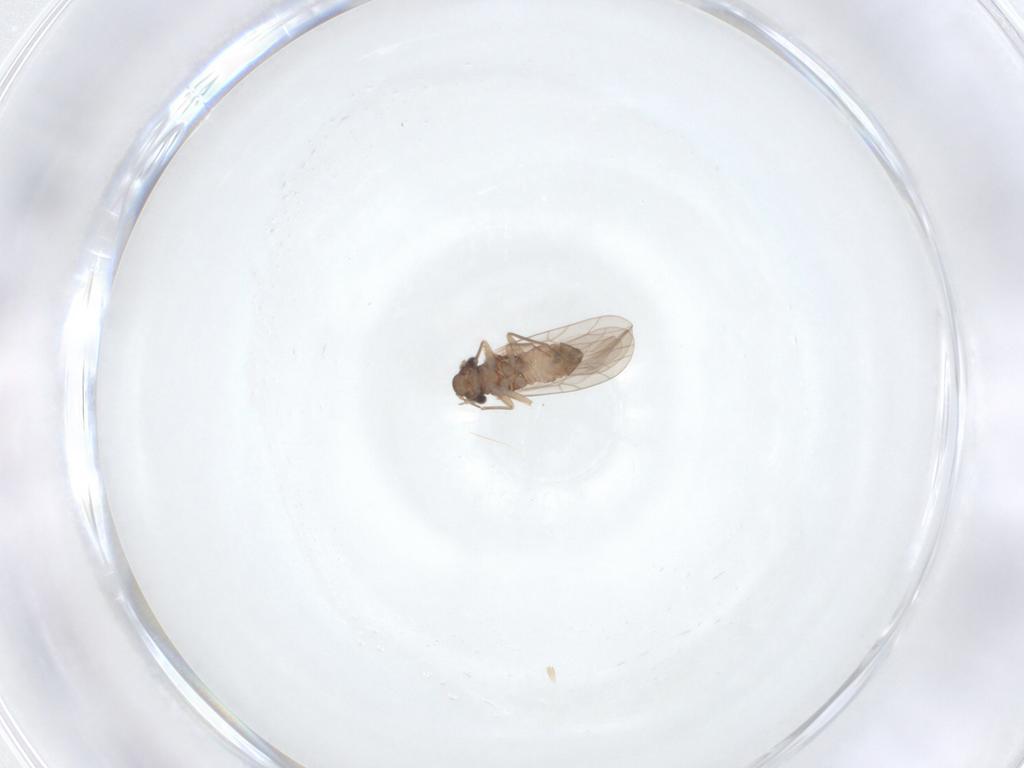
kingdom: Animalia
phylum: Arthropoda
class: Insecta
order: Psocodea
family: Lepidopsocidae
